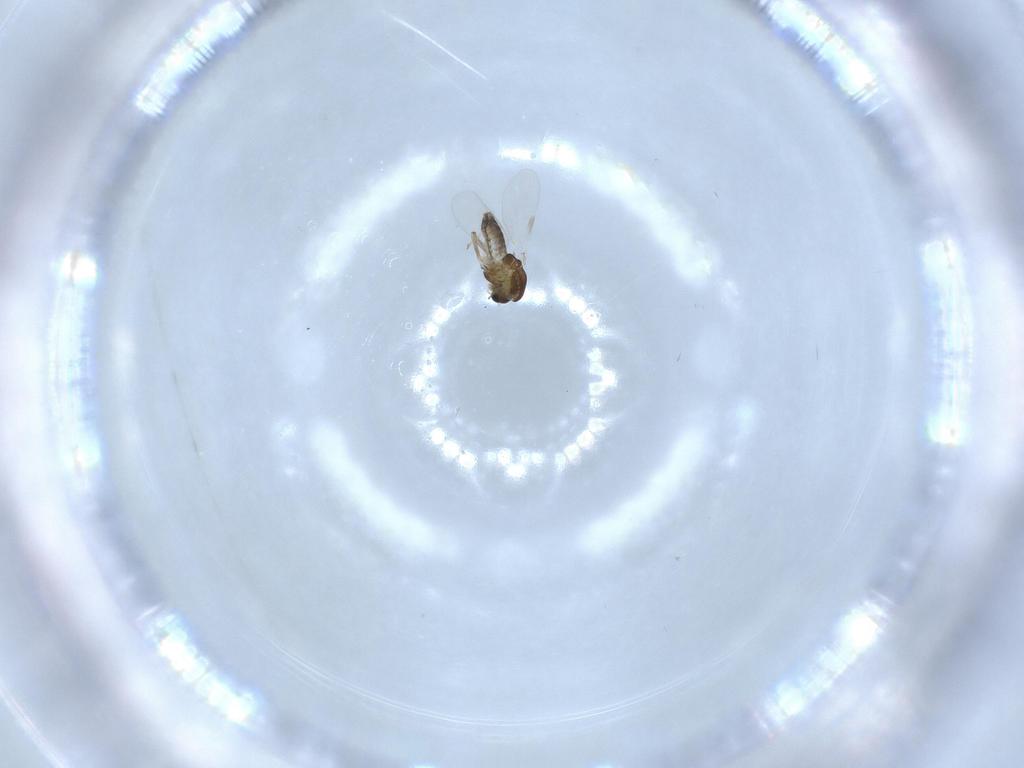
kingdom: Animalia
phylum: Arthropoda
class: Insecta
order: Diptera
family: Chironomidae
